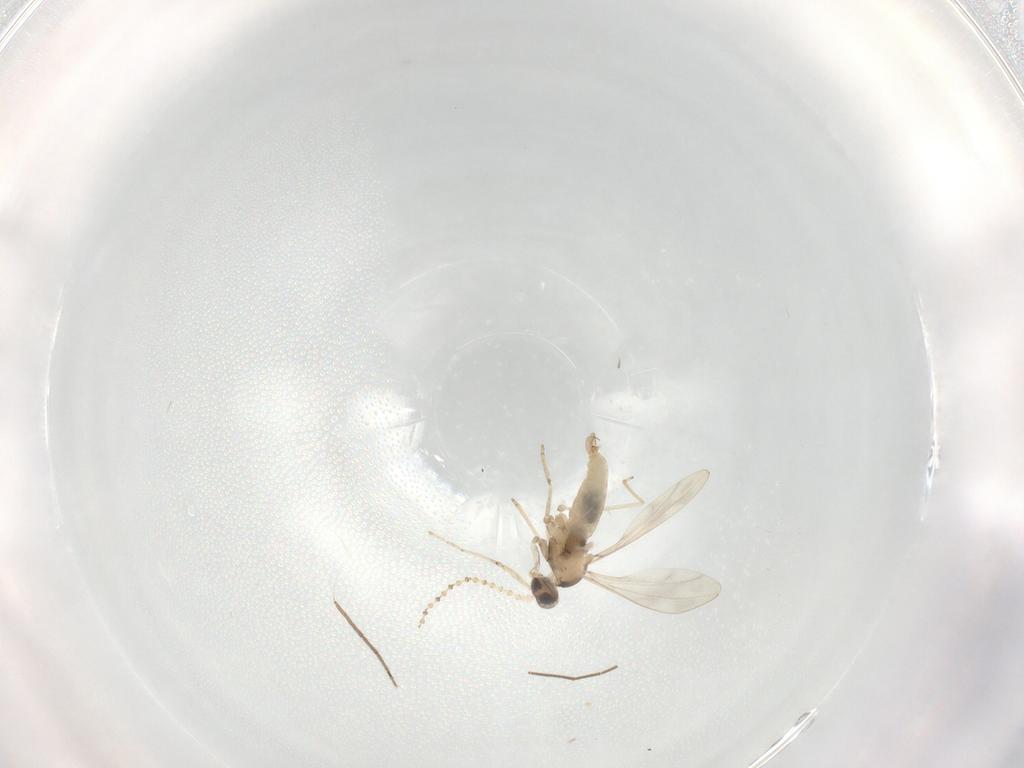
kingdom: Animalia
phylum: Arthropoda
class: Insecta
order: Diptera
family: Cecidomyiidae
